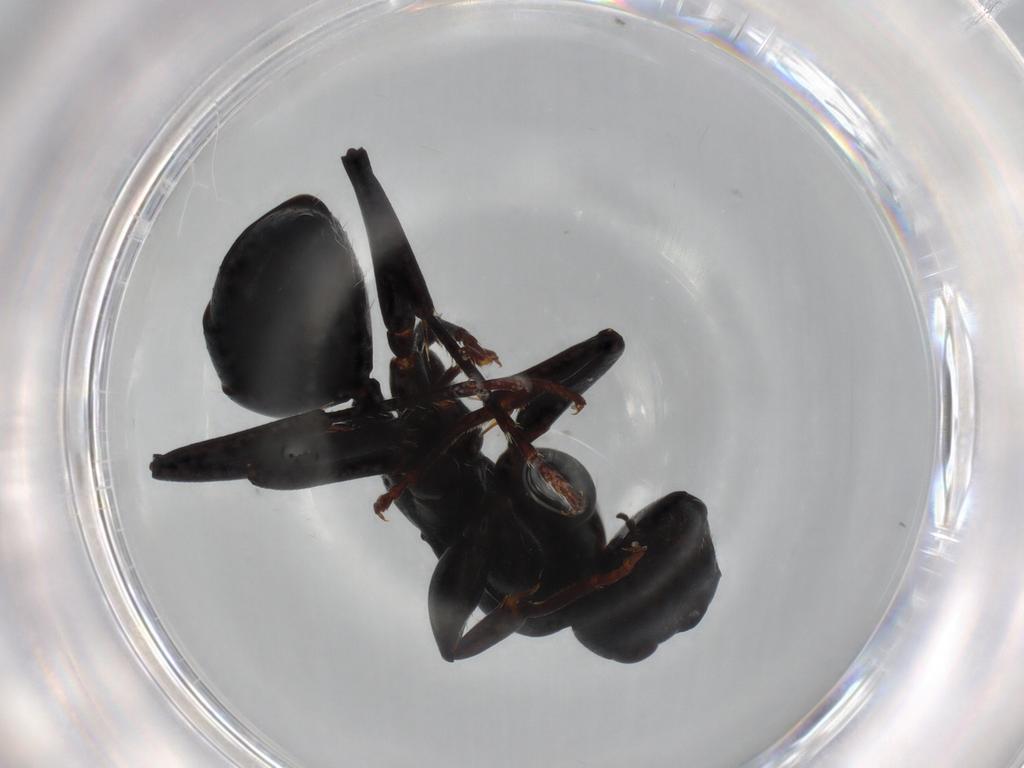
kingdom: Animalia
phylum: Arthropoda
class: Insecta
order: Hymenoptera
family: Formicidae
